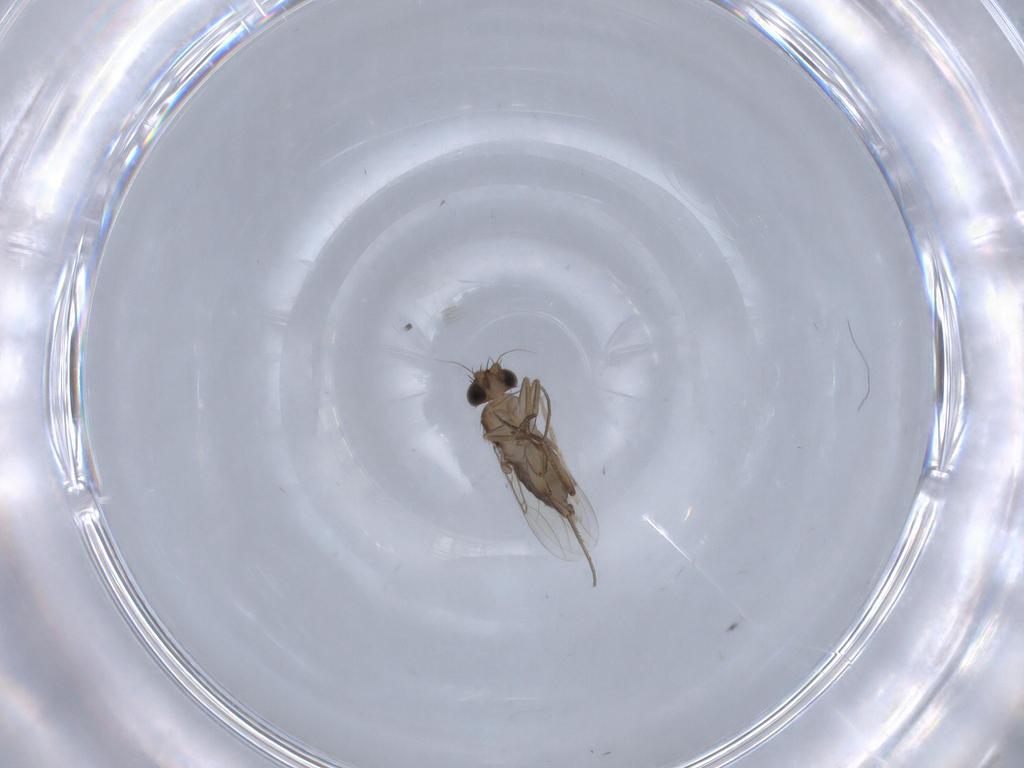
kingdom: Animalia
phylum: Arthropoda
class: Insecta
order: Diptera
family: Phoridae
